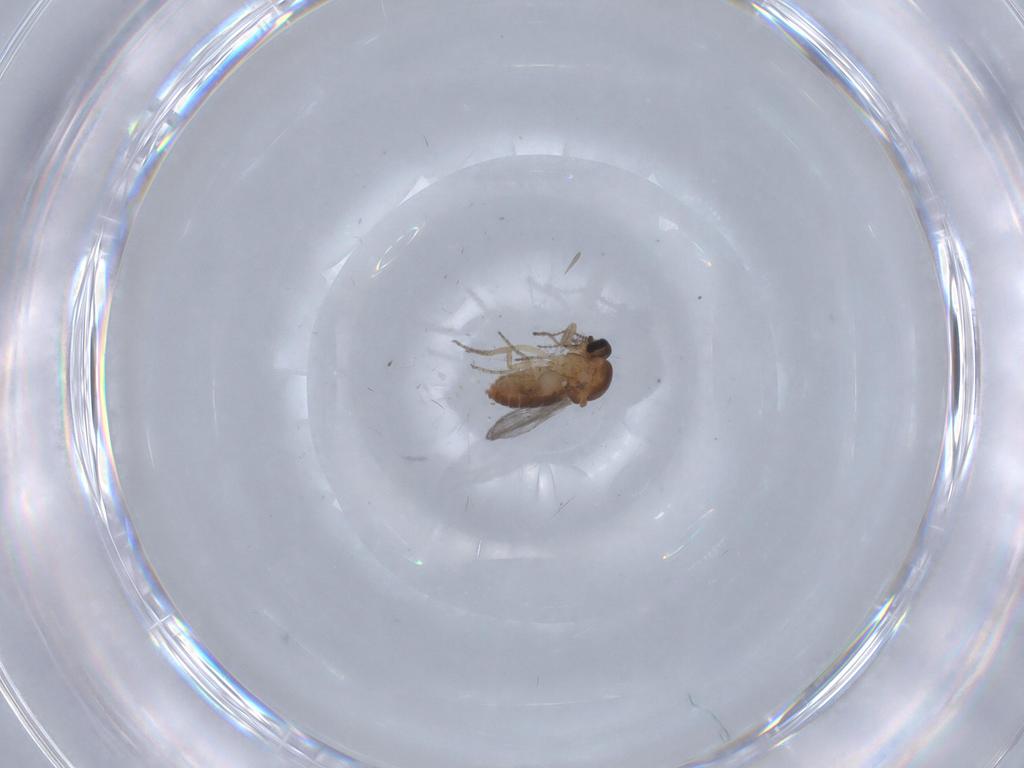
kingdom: Animalia
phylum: Arthropoda
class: Insecta
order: Diptera
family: Ceratopogonidae
